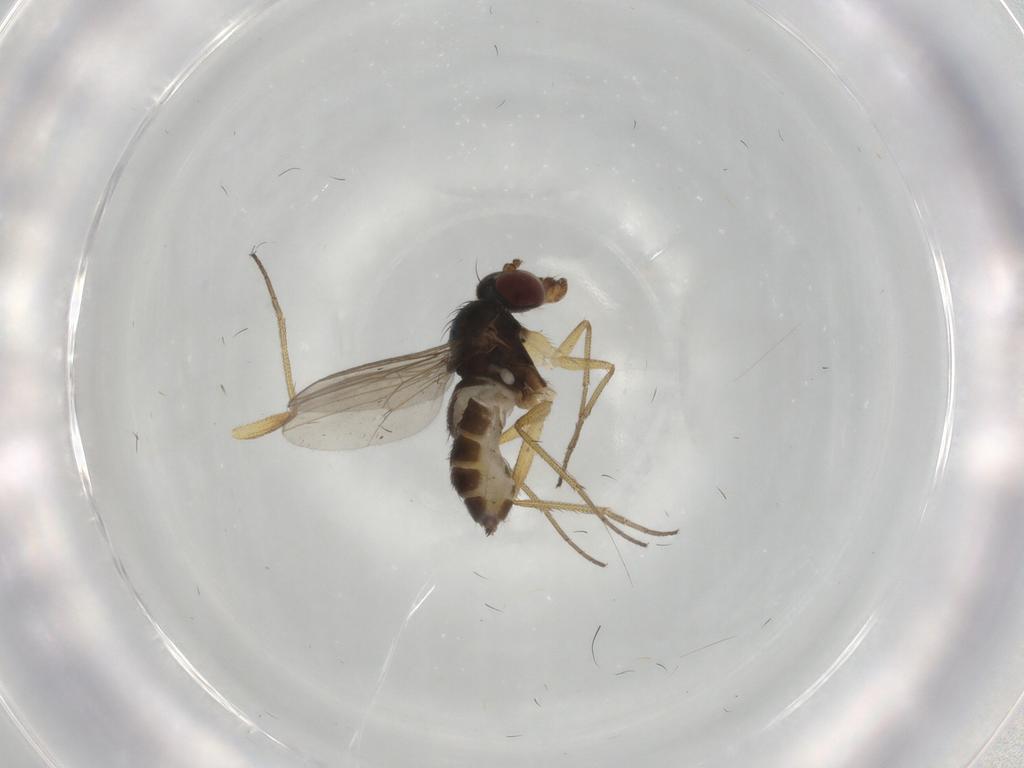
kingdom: Animalia
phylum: Arthropoda
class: Insecta
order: Diptera
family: Dolichopodidae
